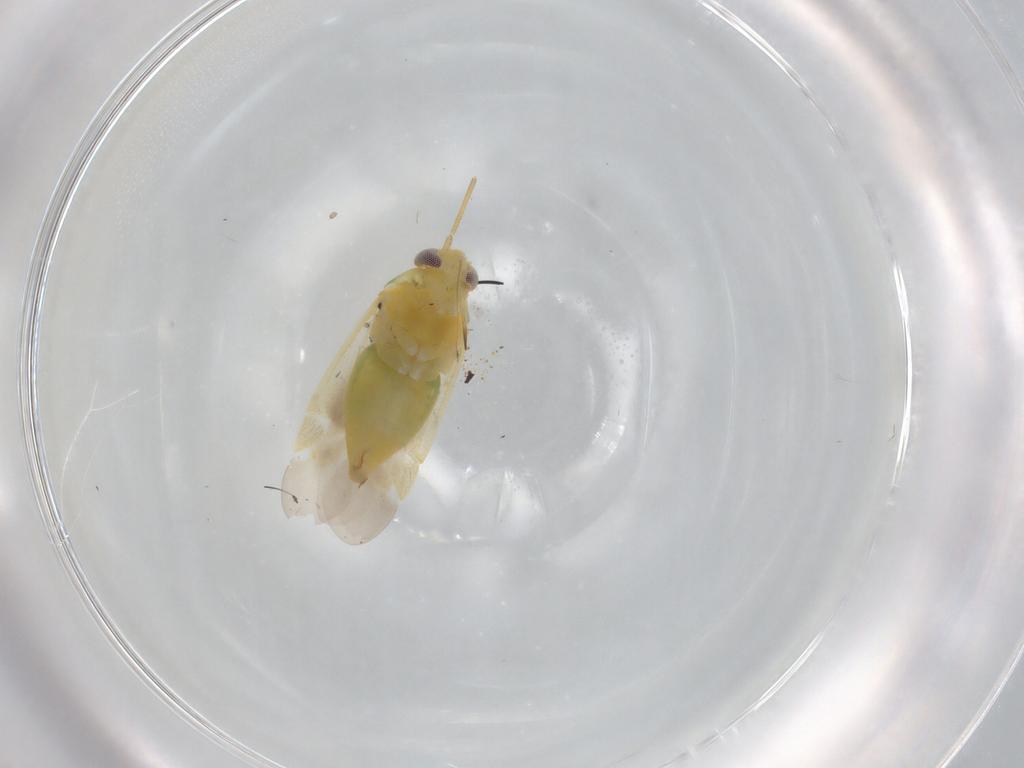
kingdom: Animalia
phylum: Arthropoda
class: Insecta
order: Hemiptera
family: Miridae
